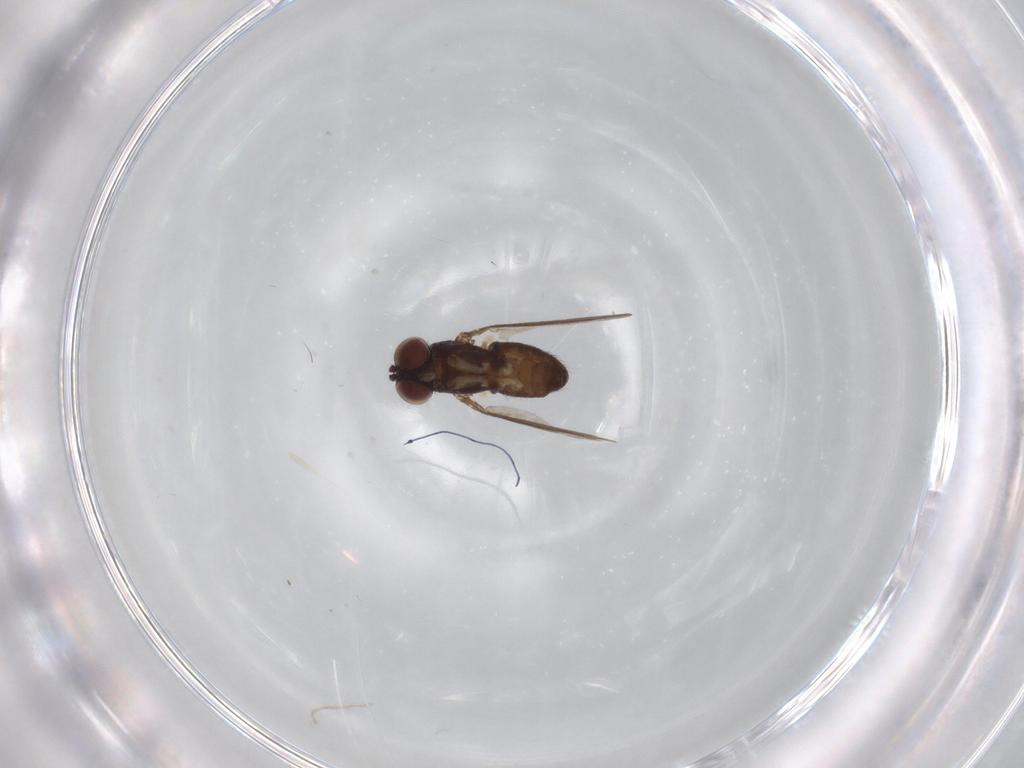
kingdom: Animalia
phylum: Arthropoda
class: Insecta
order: Diptera
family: Dolichopodidae
